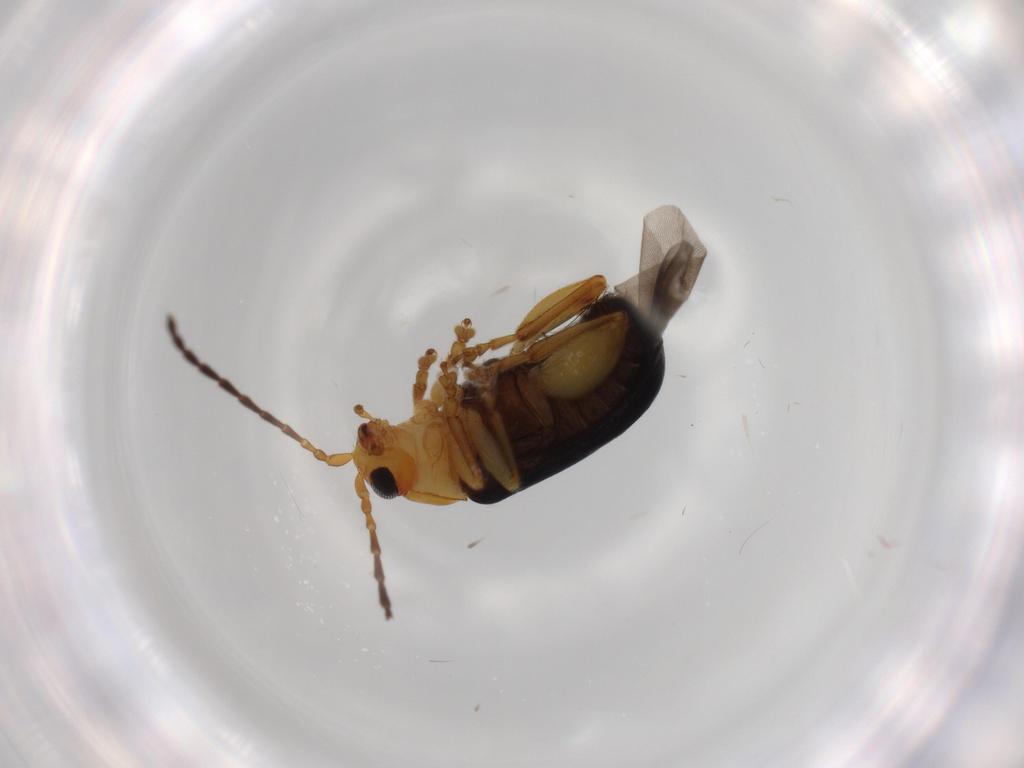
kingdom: Animalia
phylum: Arthropoda
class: Insecta
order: Coleoptera
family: Chrysomelidae
